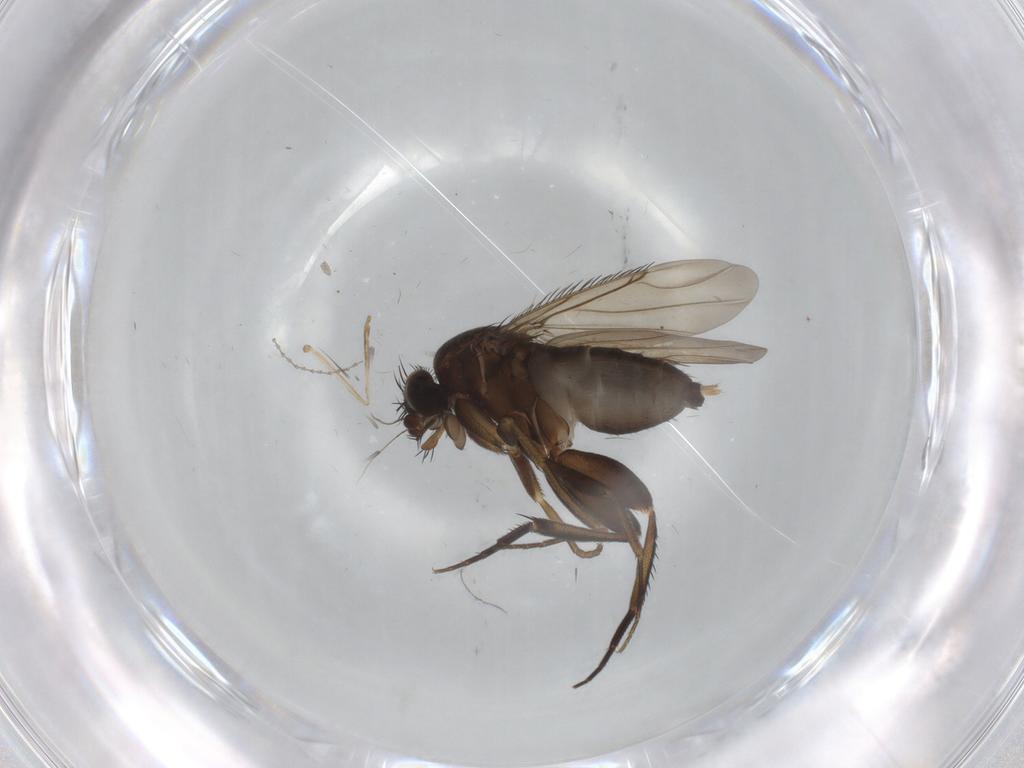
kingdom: Animalia
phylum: Arthropoda
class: Insecta
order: Diptera
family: Phoridae
